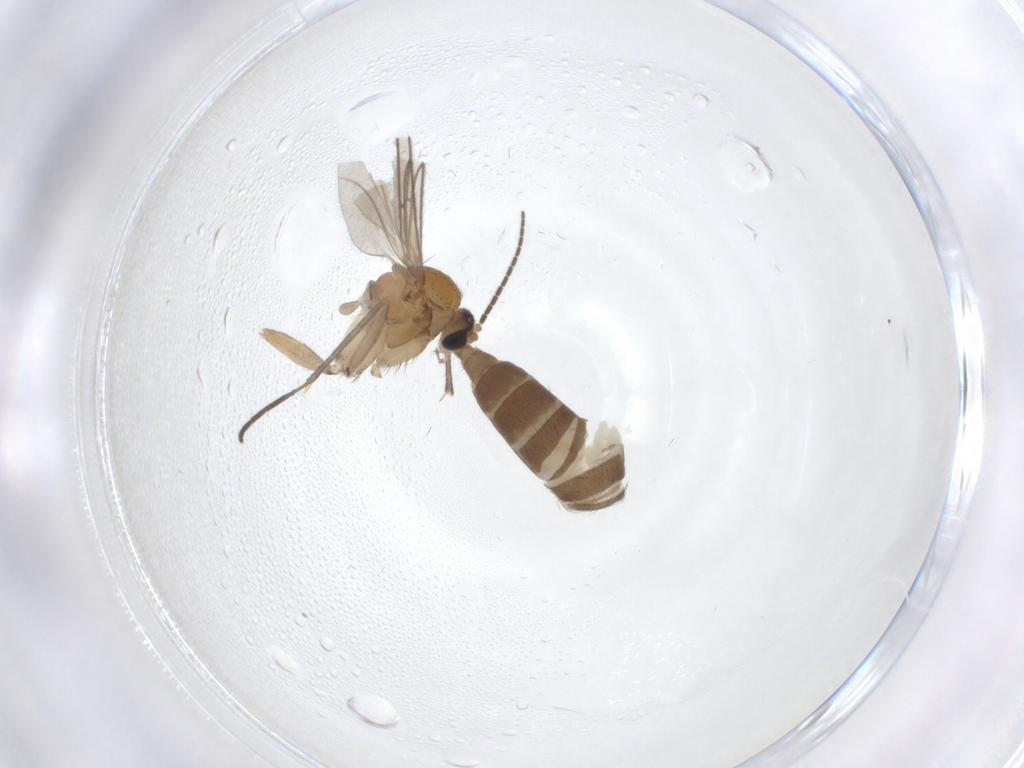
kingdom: Animalia
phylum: Arthropoda
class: Insecta
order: Diptera
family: Sciaridae
